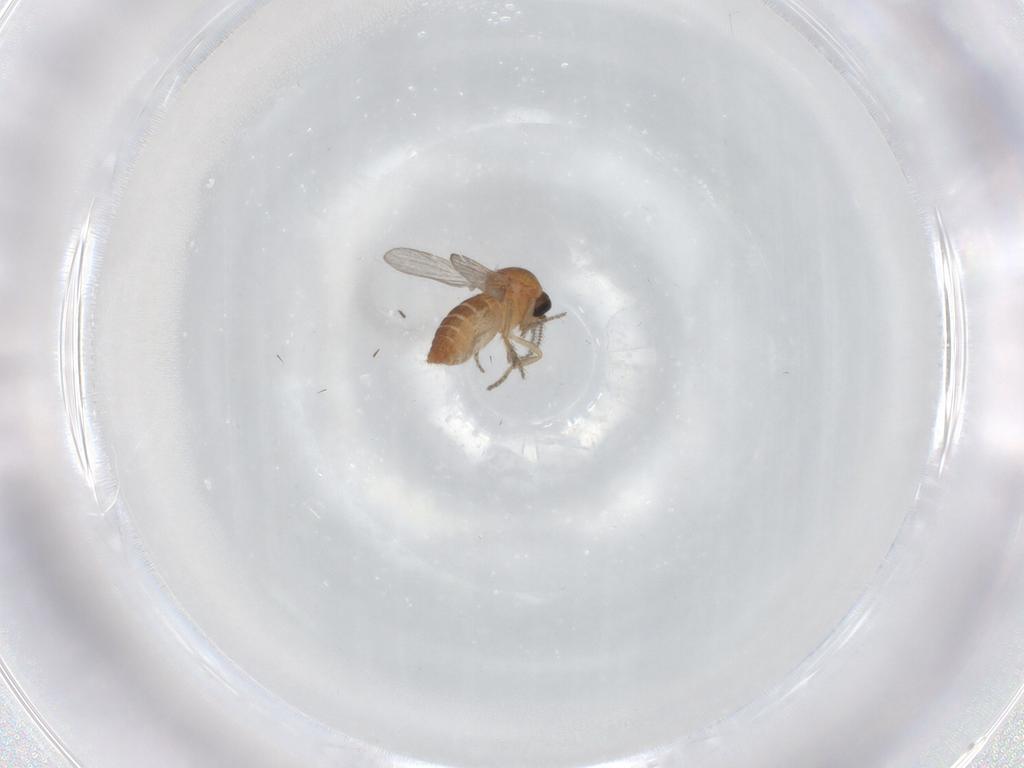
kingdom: Animalia
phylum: Arthropoda
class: Insecta
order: Diptera
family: Ceratopogonidae
